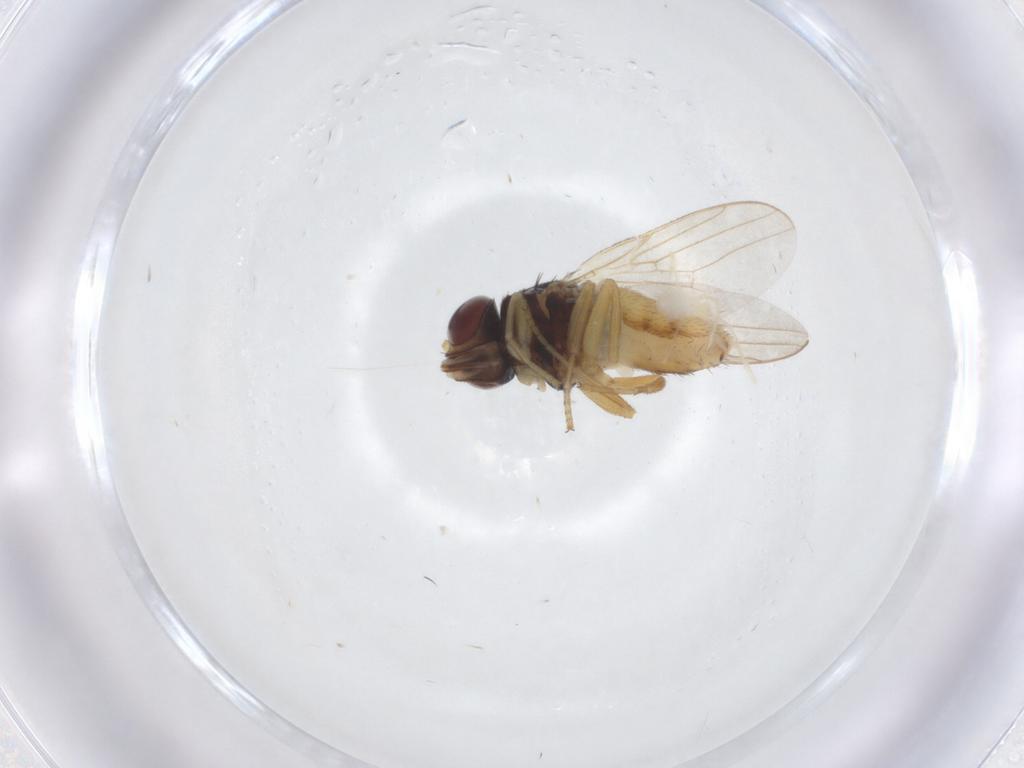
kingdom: Animalia
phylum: Arthropoda
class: Insecta
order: Diptera
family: Chloropidae
